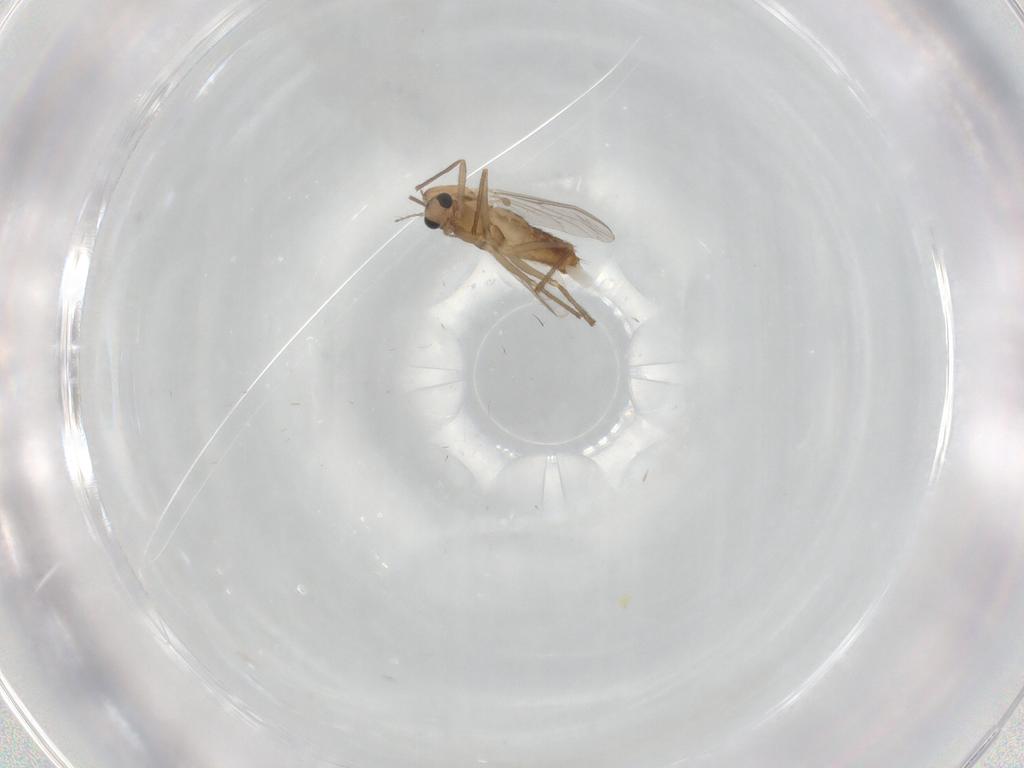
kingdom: Animalia
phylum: Arthropoda
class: Insecta
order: Diptera
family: Chironomidae
